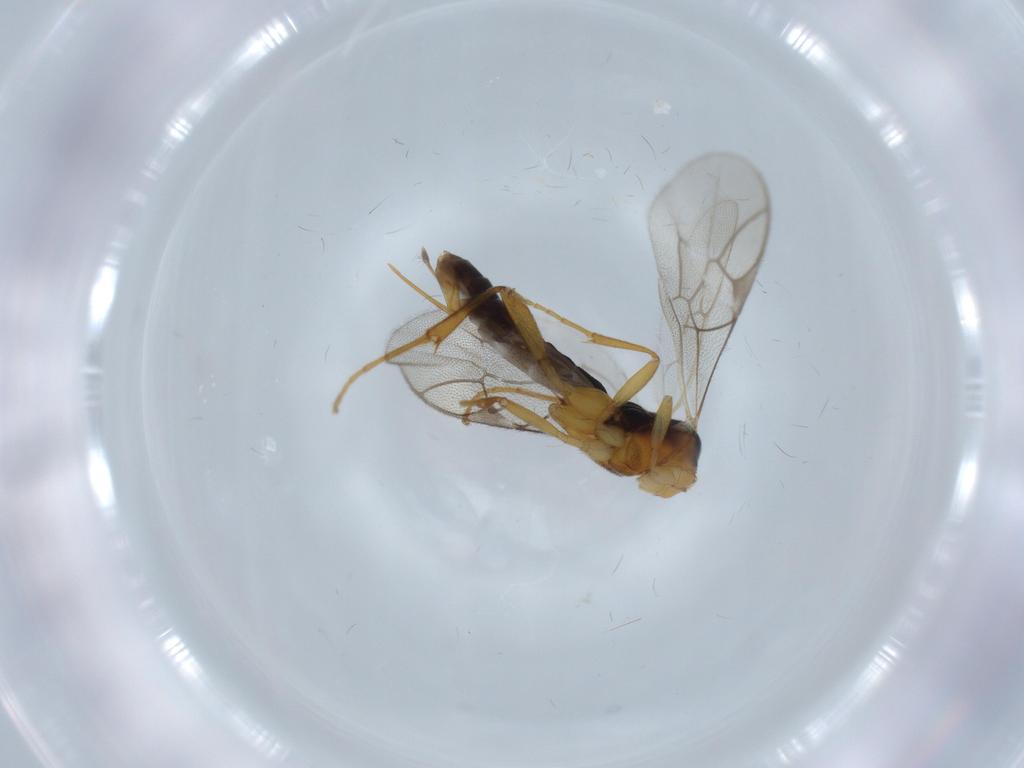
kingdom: Animalia
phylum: Arthropoda
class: Insecta
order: Hymenoptera
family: Ichneumonidae
